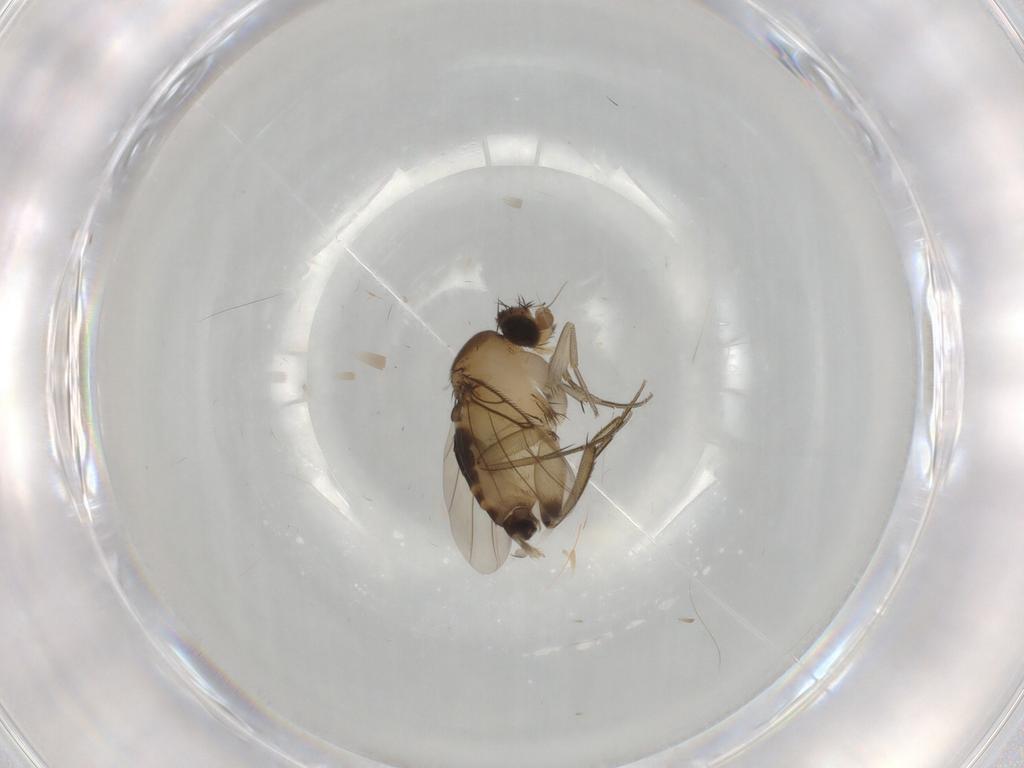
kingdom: Animalia
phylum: Arthropoda
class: Insecta
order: Diptera
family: Phoridae
